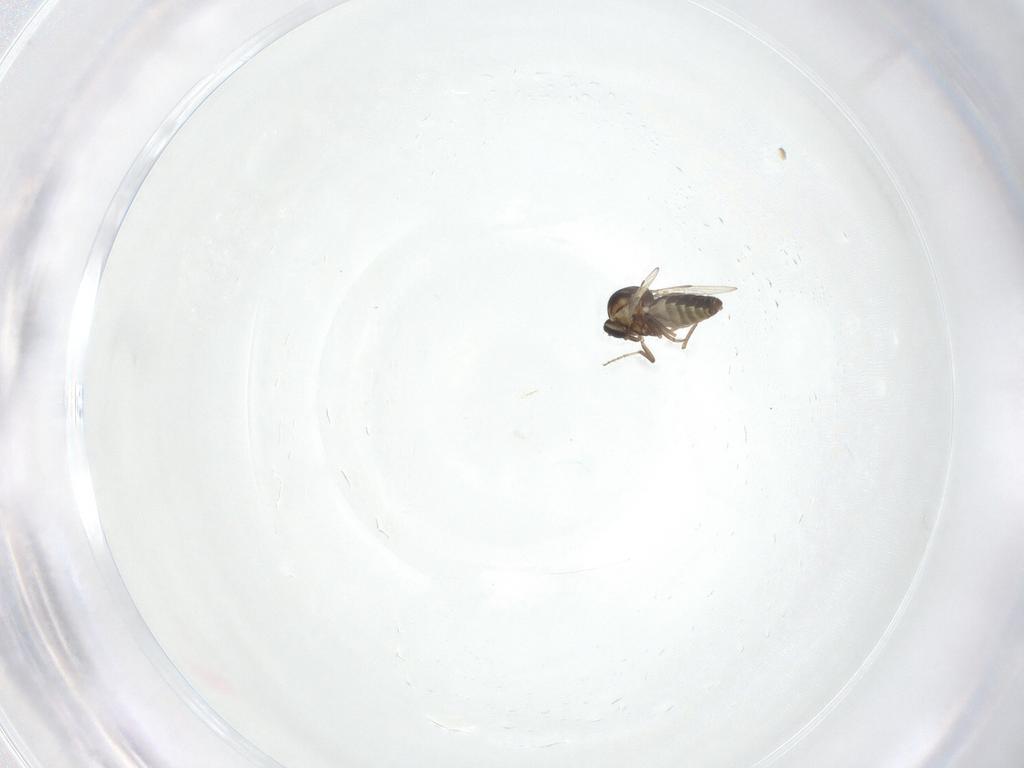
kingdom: Animalia
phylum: Arthropoda
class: Insecta
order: Diptera
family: Ceratopogonidae
